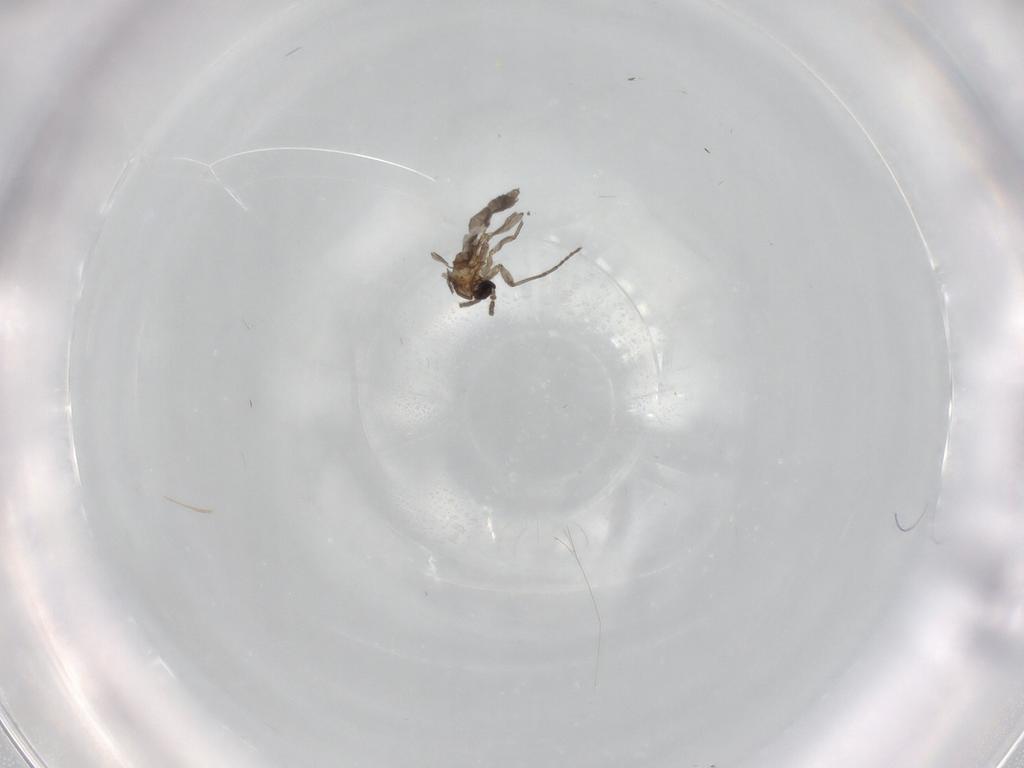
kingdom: Animalia
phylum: Arthropoda
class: Insecta
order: Diptera
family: Sciaridae
